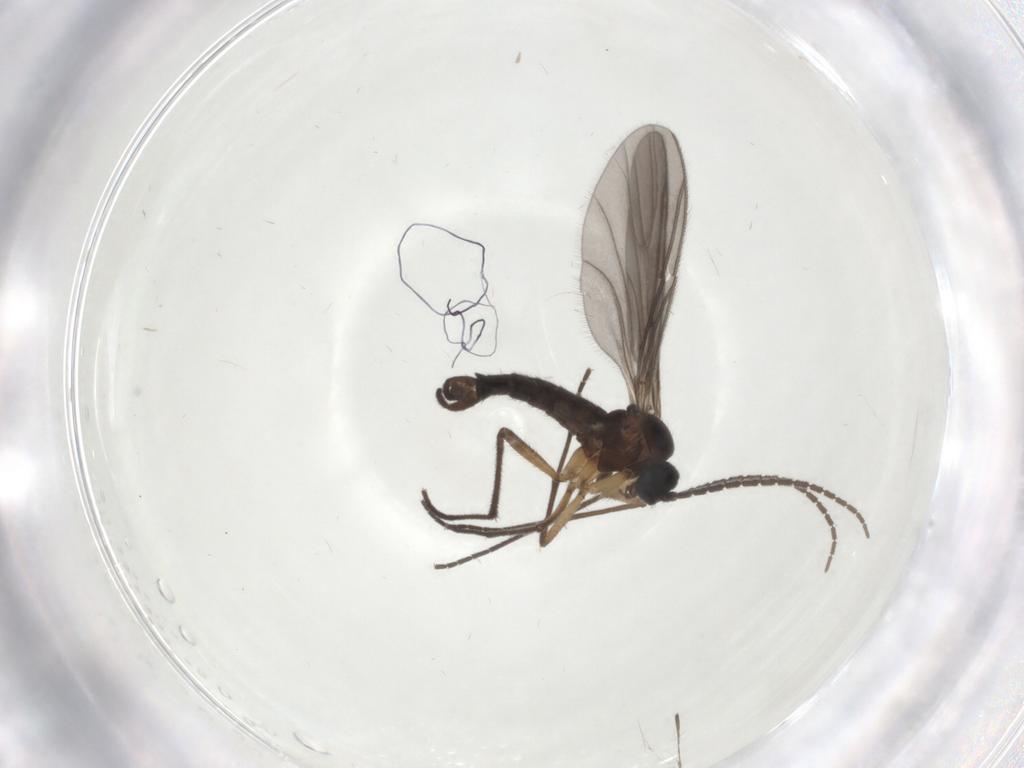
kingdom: Animalia
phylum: Arthropoda
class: Insecta
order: Diptera
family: Sciaridae
